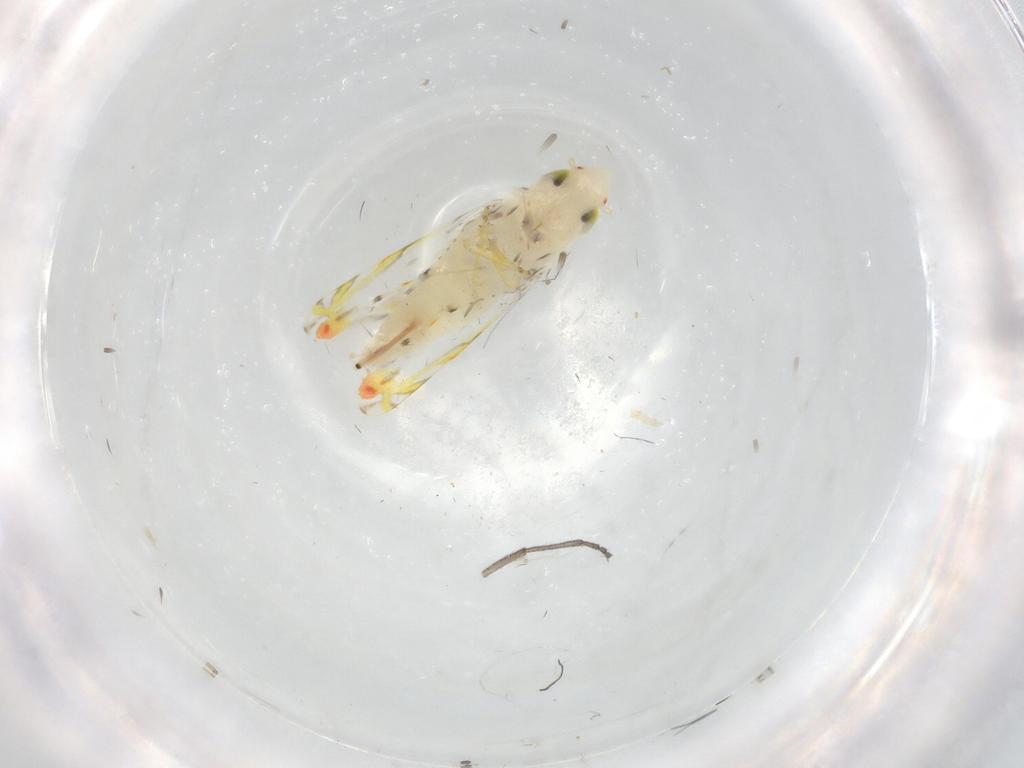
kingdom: Animalia
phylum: Arthropoda
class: Insecta
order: Hemiptera
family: Cicadellidae
